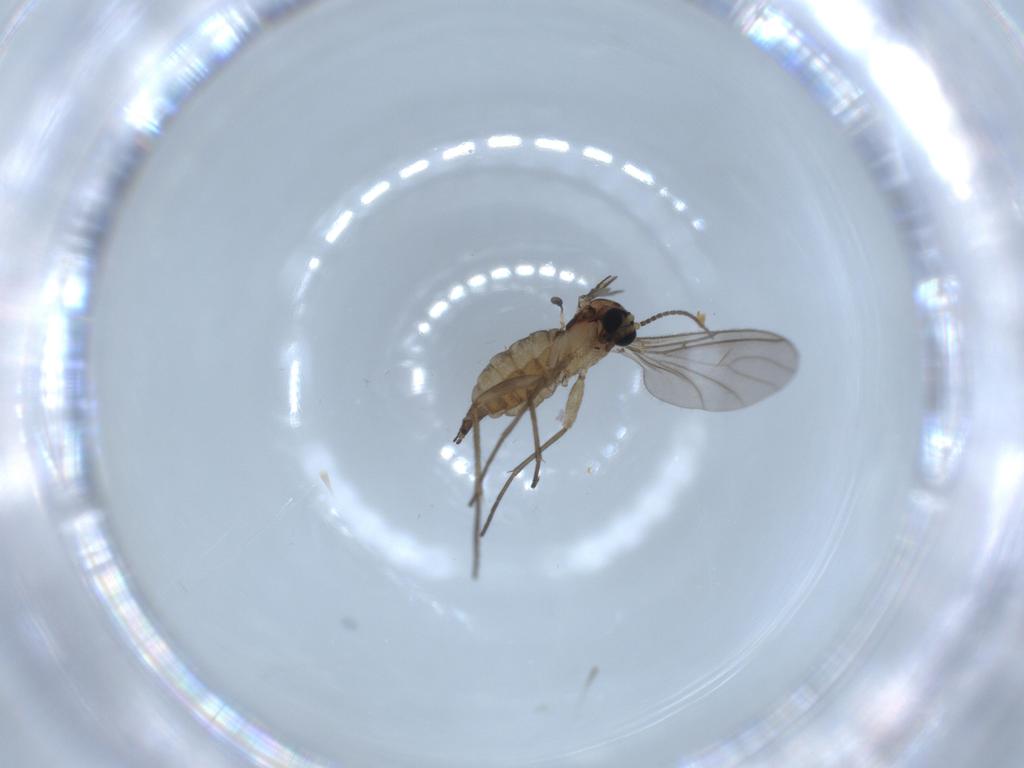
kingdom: Animalia
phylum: Arthropoda
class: Insecta
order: Diptera
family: Sciaridae
